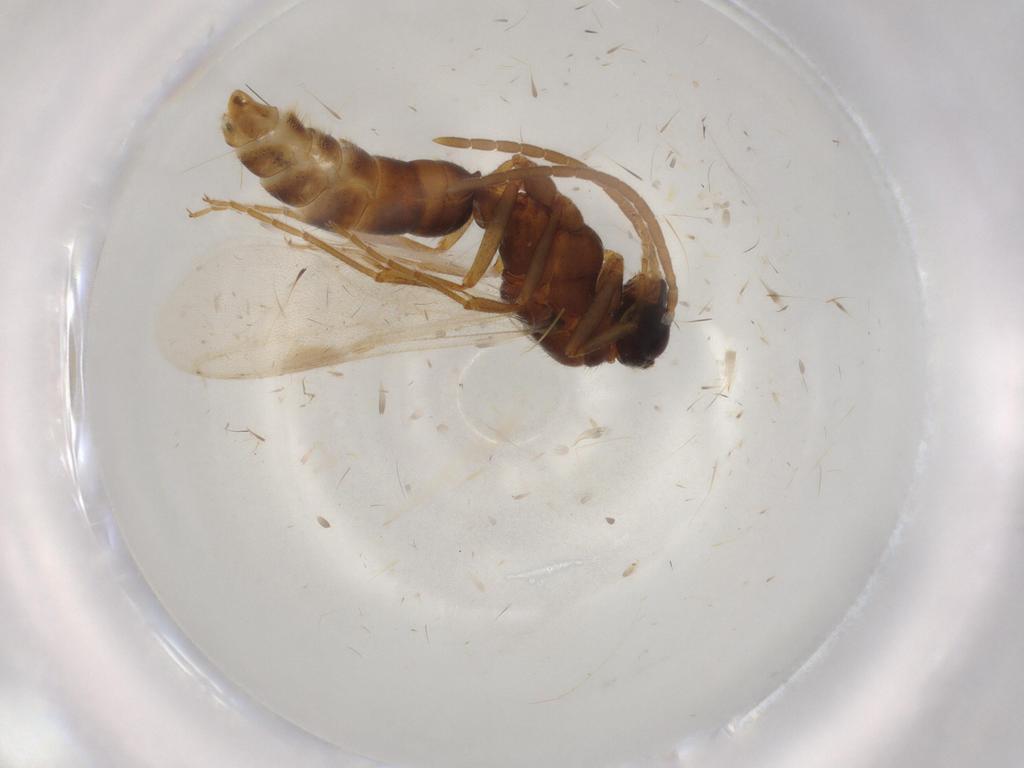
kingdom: Animalia
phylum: Arthropoda
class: Insecta
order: Hymenoptera
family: Formicidae
